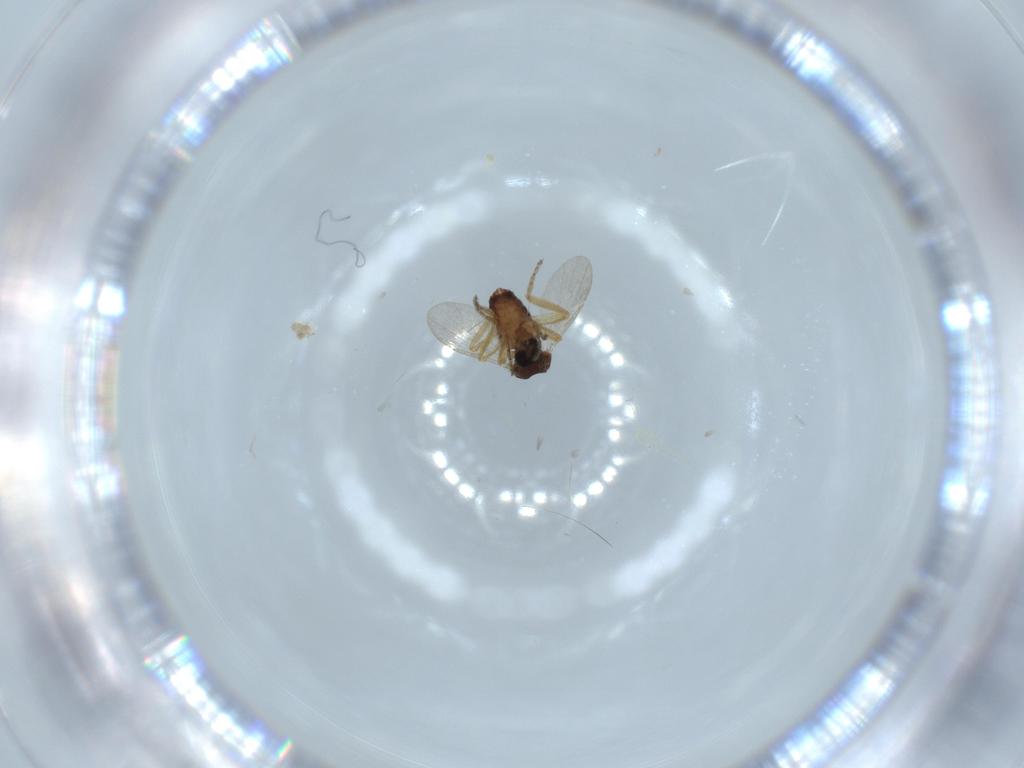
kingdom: Animalia
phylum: Arthropoda
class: Insecta
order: Diptera
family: Ceratopogonidae
